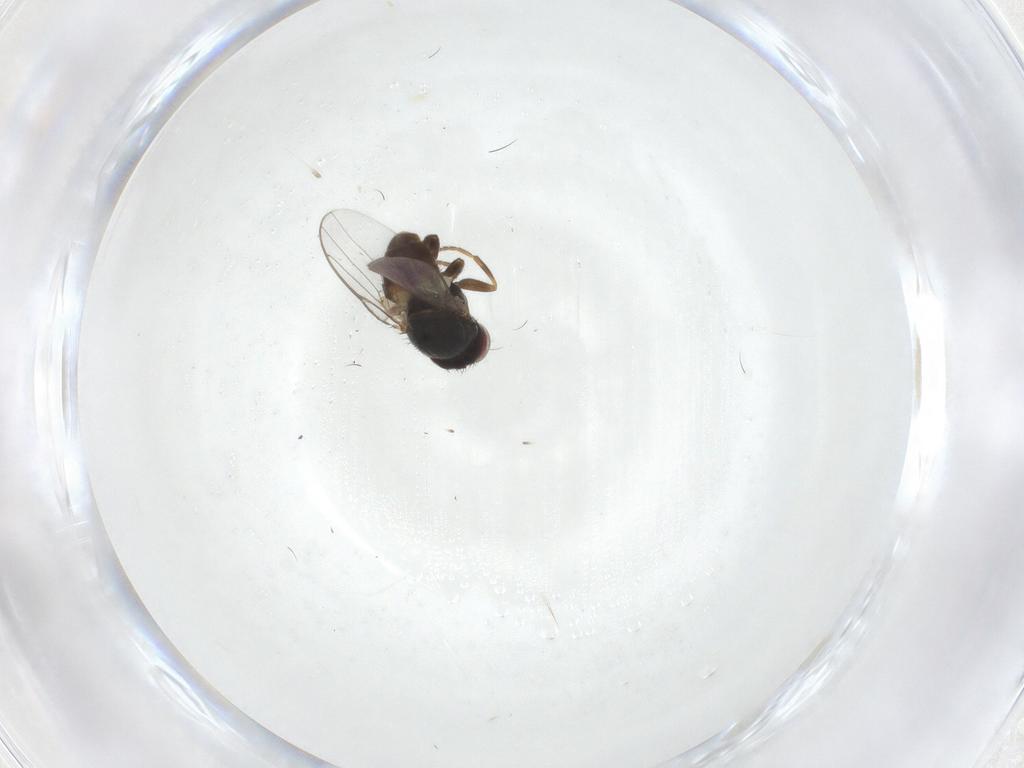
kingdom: Animalia
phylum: Arthropoda
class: Insecta
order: Diptera
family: Chloropidae
